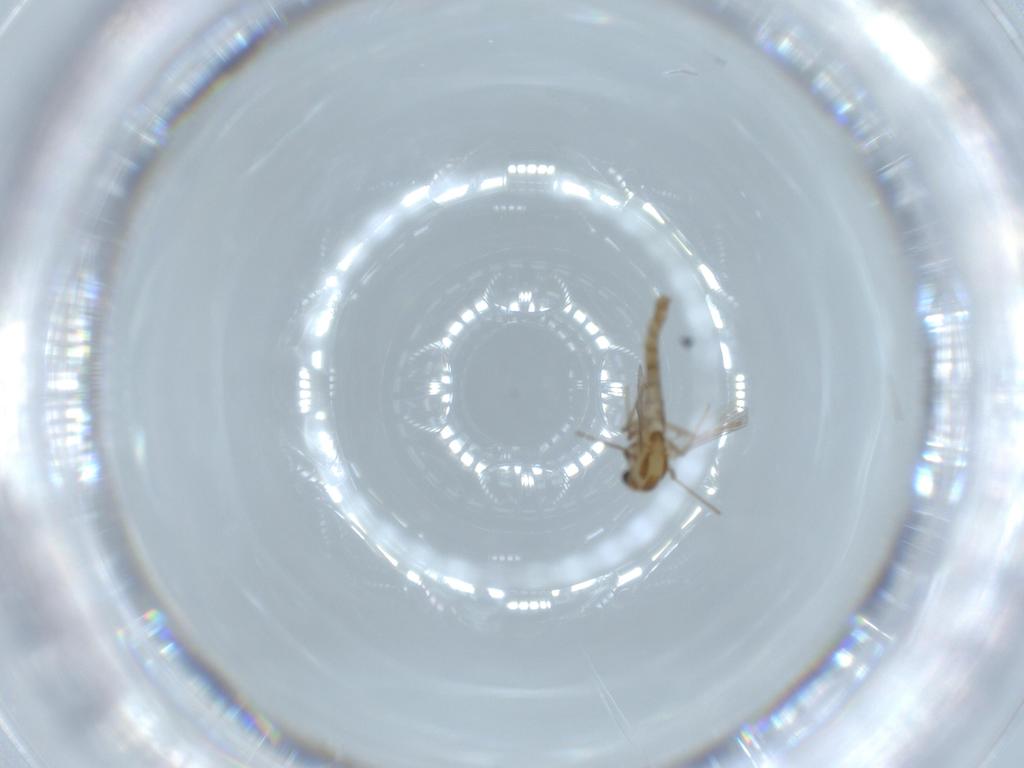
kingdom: Animalia
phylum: Arthropoda
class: Insecta
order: Diptera
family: Chironomidae
